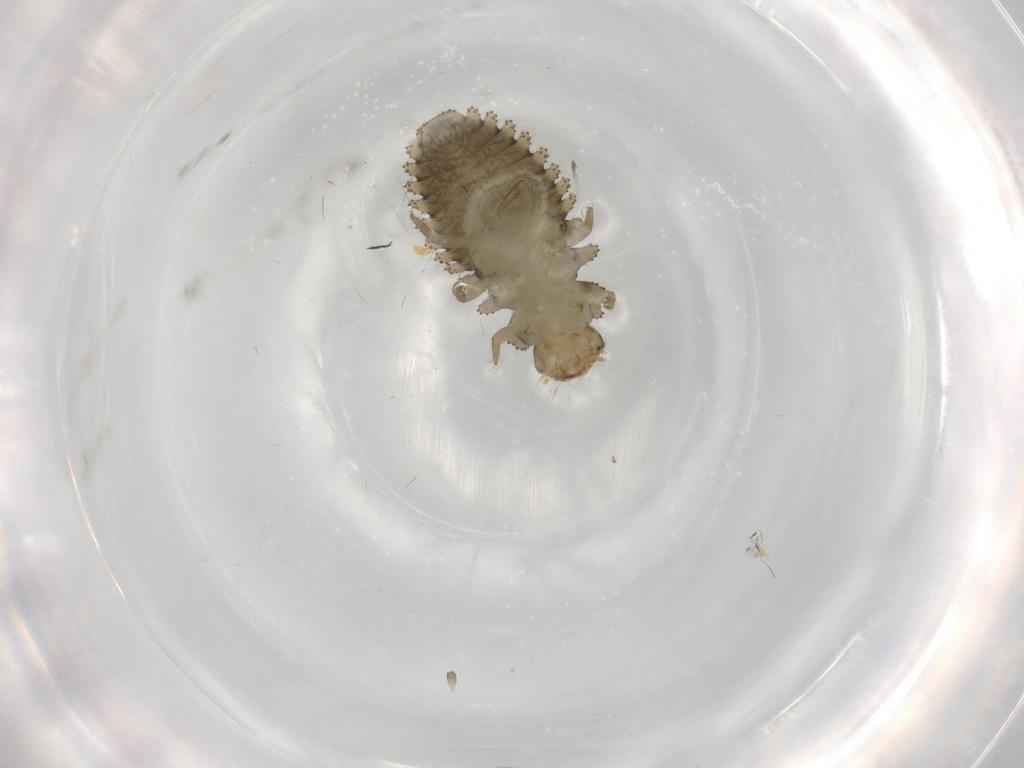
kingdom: Animalia
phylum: Arthropoda
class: Insecta
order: Coleoptera
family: Coccinellidae
